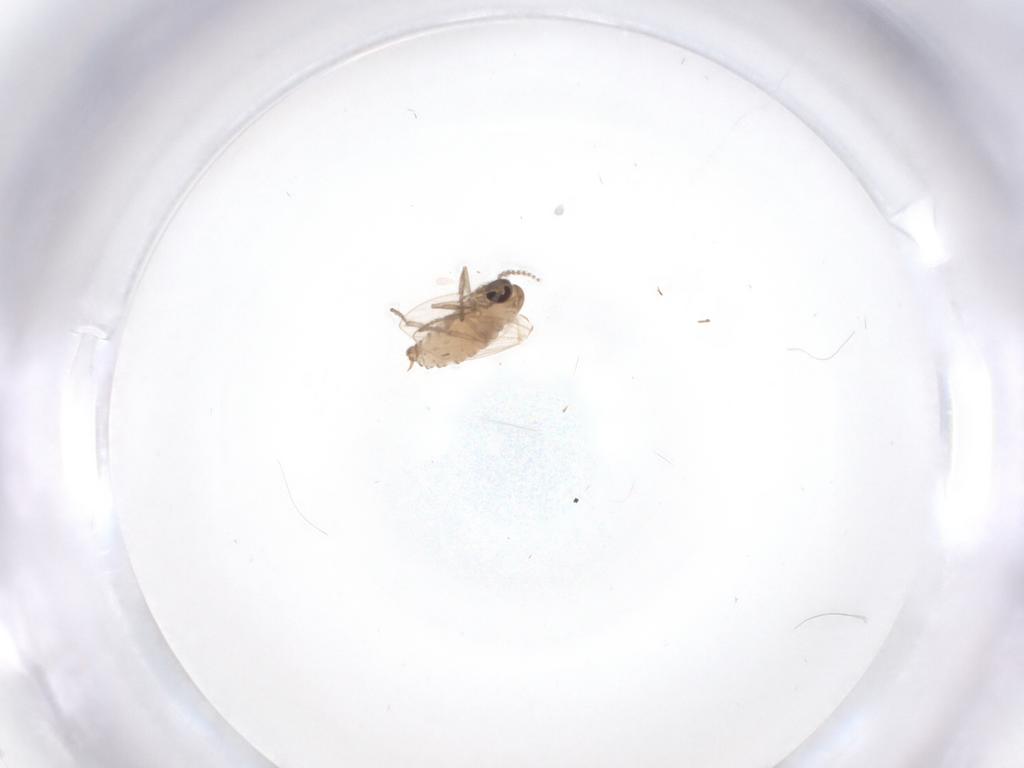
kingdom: Animalia
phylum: Arthropoda
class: Insecta
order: Diptera
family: Psychodidae
